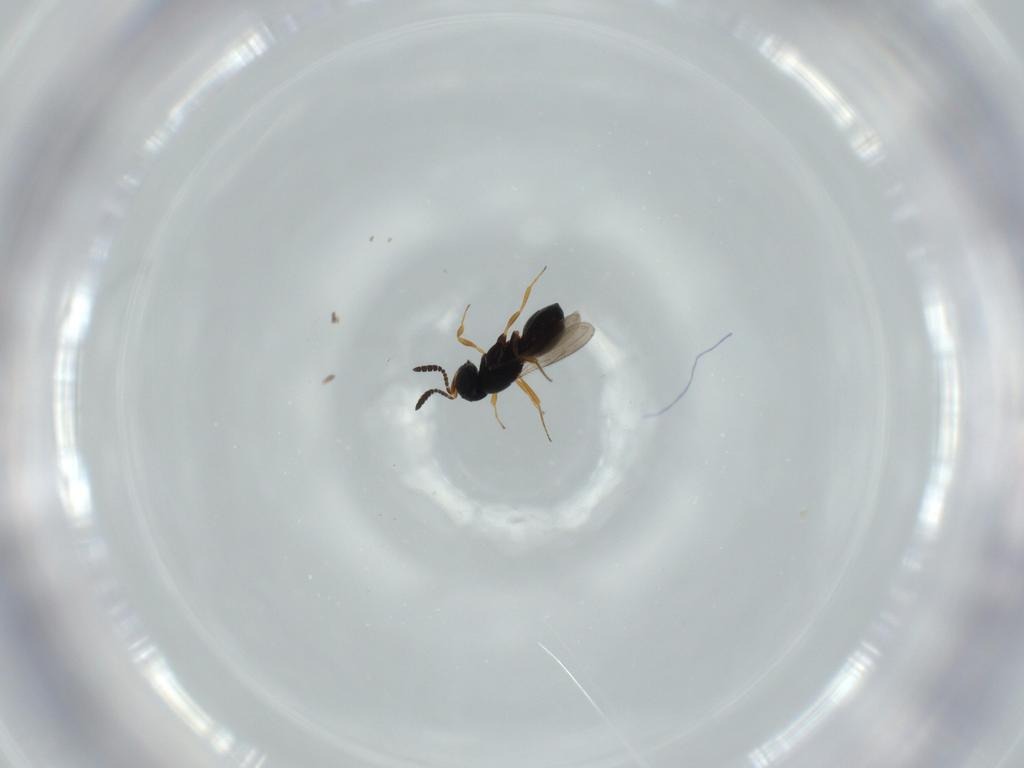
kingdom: Animalia
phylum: Arthropoda
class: Insecta
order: Hymenoptera
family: Scelionidae
